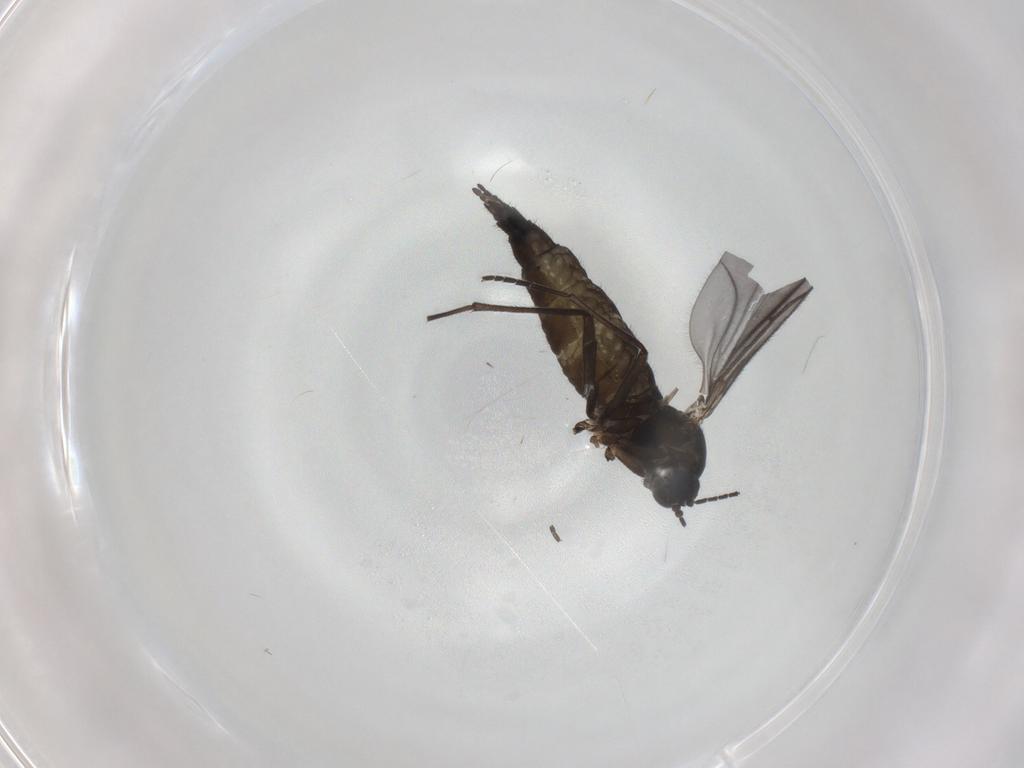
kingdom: Animalia
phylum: Arthropoda
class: Insecta
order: Diptera
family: Sciaridae
